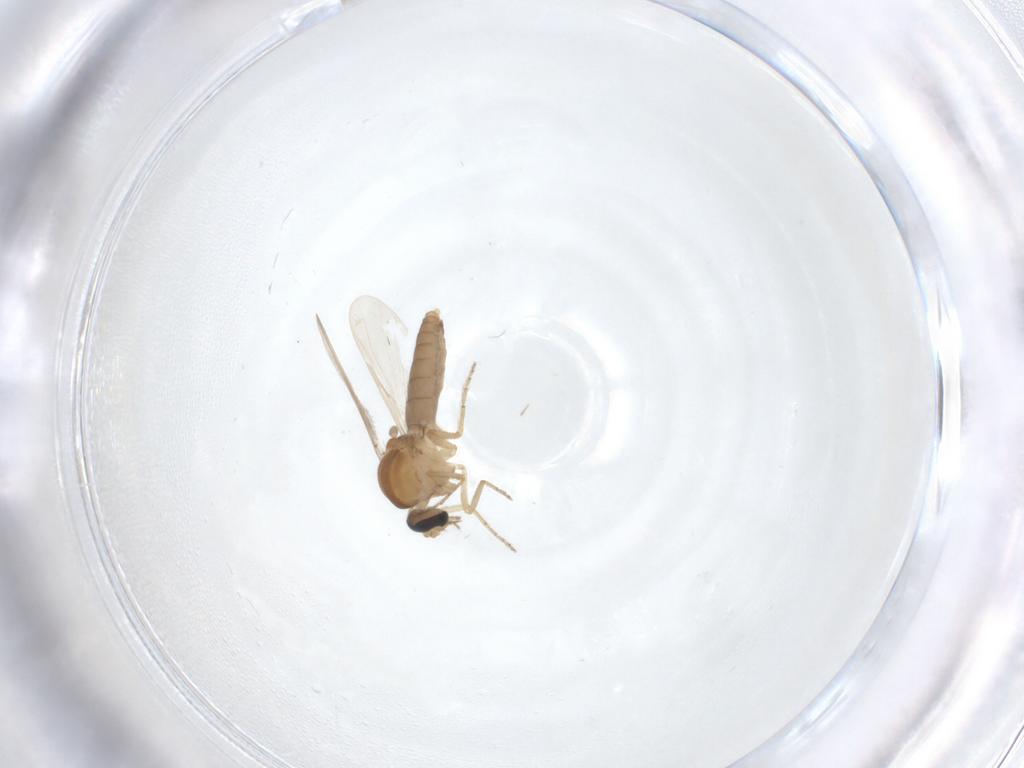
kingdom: Animalia
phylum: Arthropoda
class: Insecta
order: Diptera
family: Ceratopogonidae
